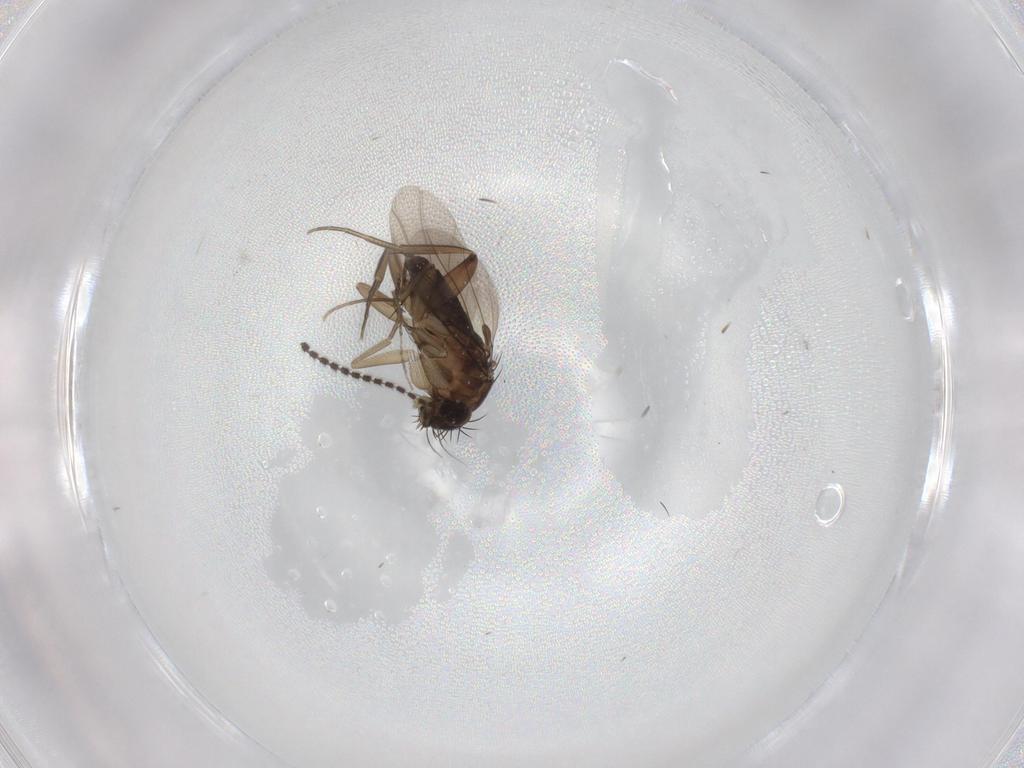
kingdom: Animalia
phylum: Arthropoda
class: Insecta
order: Diptera
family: Sciaridae
